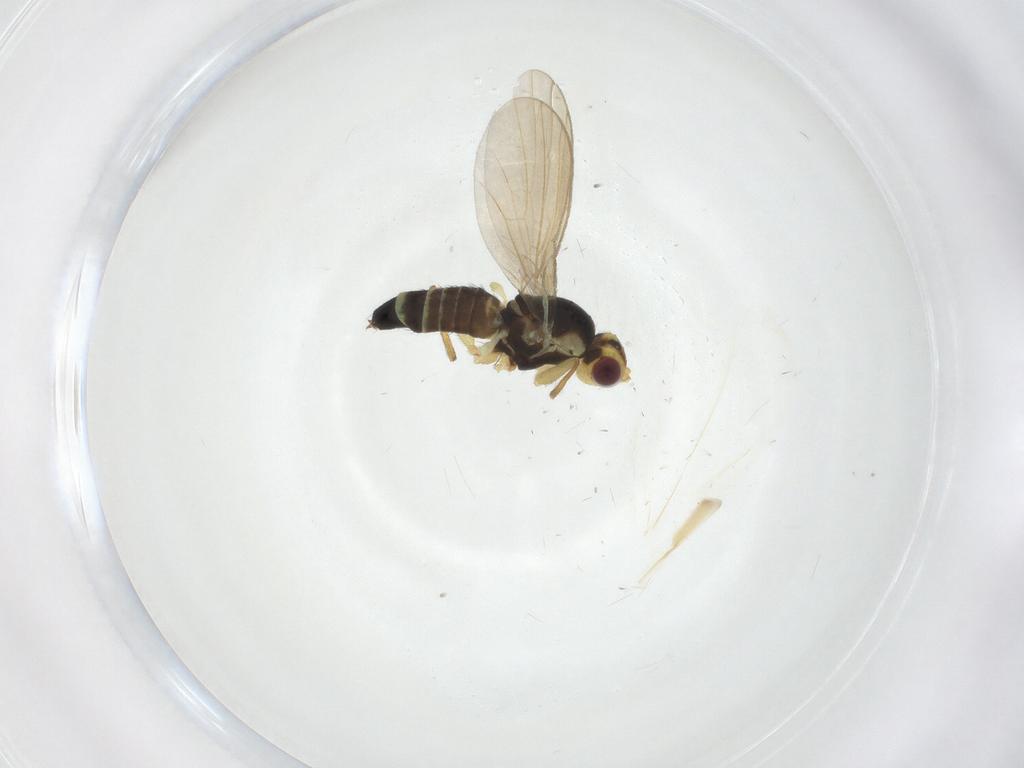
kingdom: Animalia
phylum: Arthropoda
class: Insecta
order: Diptera
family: Agromyzidae
